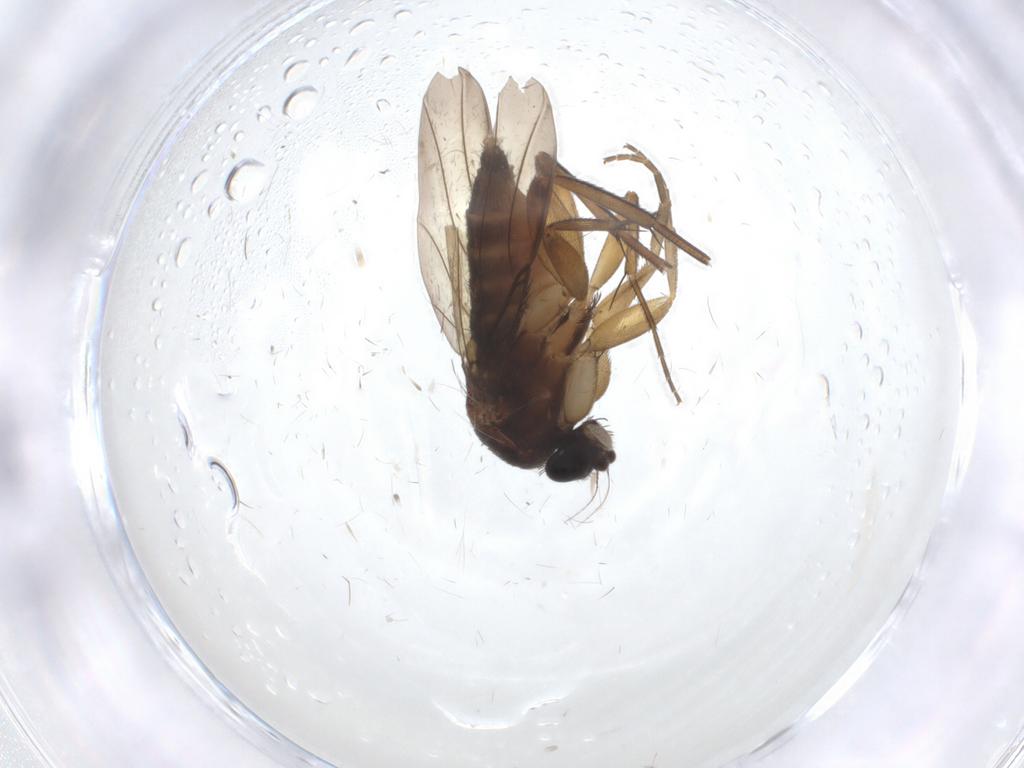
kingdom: Animalia
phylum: Arthropoda
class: Insecta
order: Diptera
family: Phoridae
